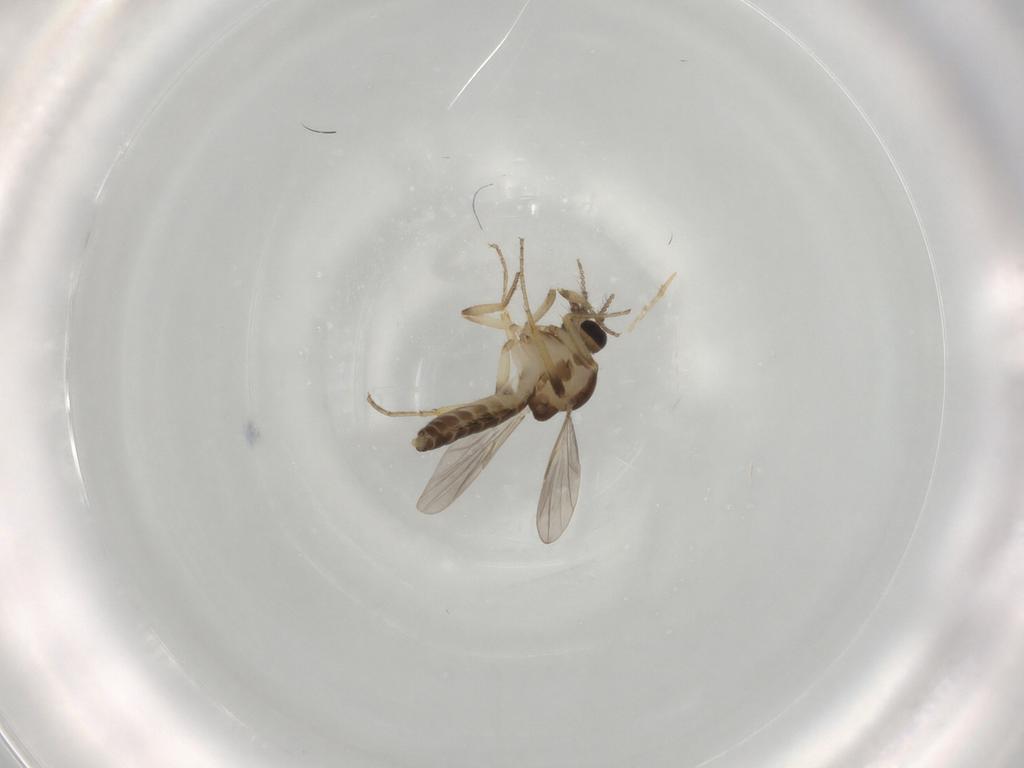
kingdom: Animalia
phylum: Arthropoda
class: Insecta
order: Diptera
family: Ceratopogonidae
